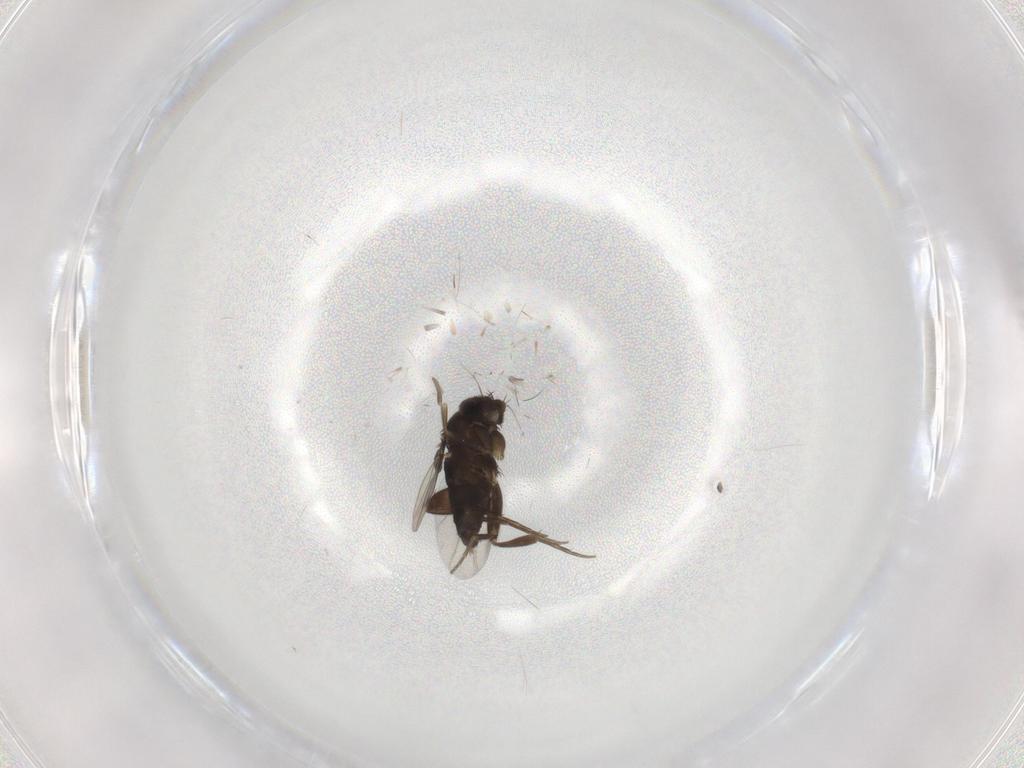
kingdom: Animalia
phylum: Arthropoda
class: Insecta
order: Diptera
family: Phoridae
